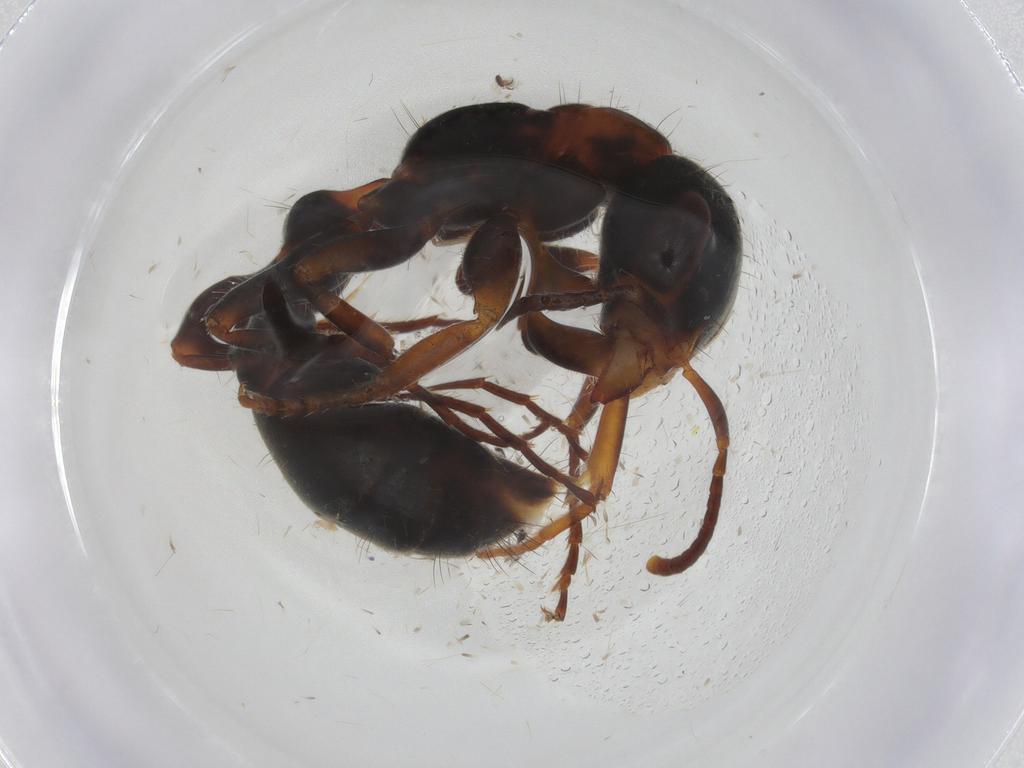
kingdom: Animalia
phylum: Arthropoda
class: Insecta
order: Hymenoptera
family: Formicidae
